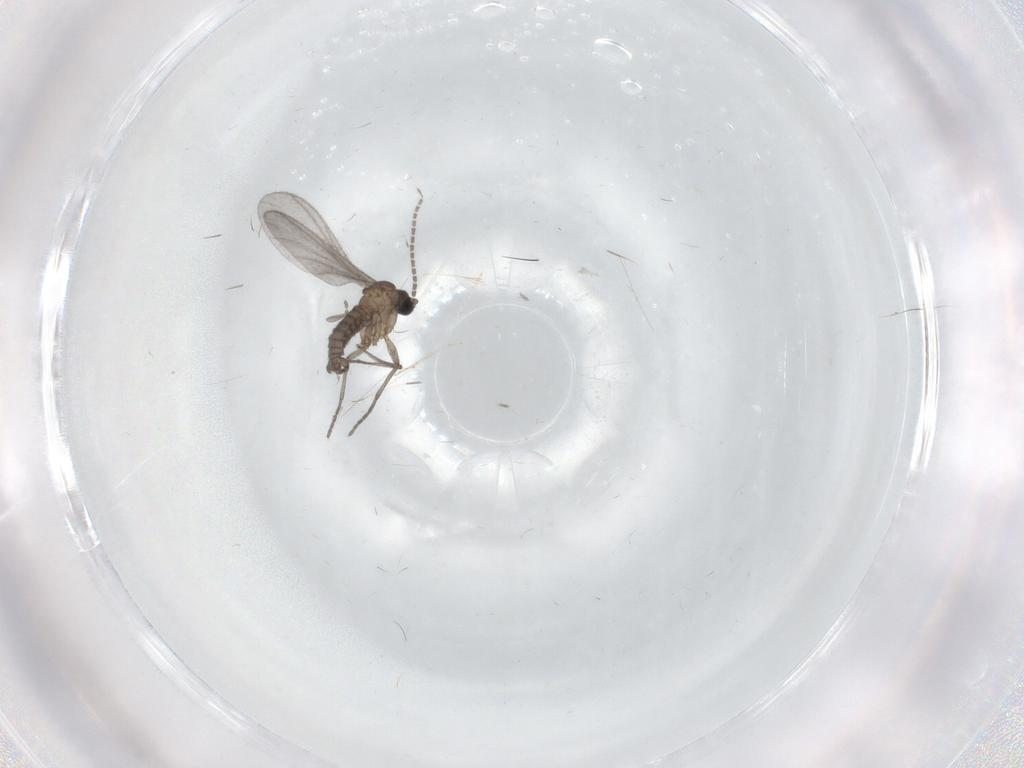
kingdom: Animalia
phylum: Arthropoda
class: Insecta
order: Diptera
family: Cecidomyiidae
